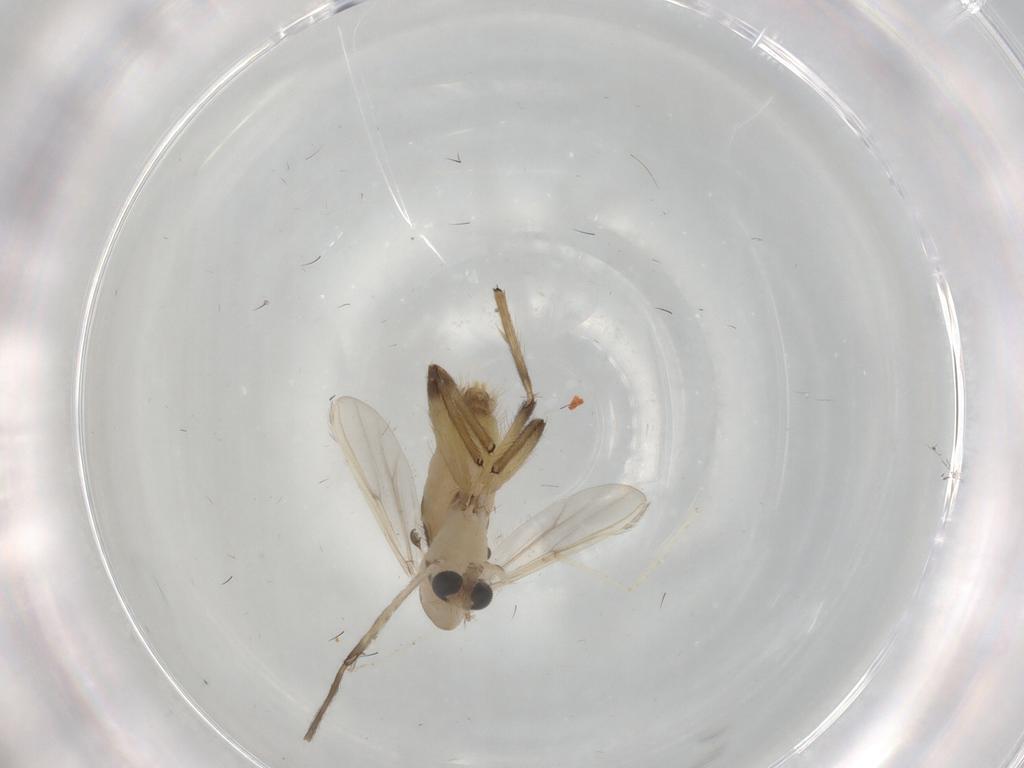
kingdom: Animalia
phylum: Arthropoda
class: Insecta
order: Diptera
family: Chironomidae
